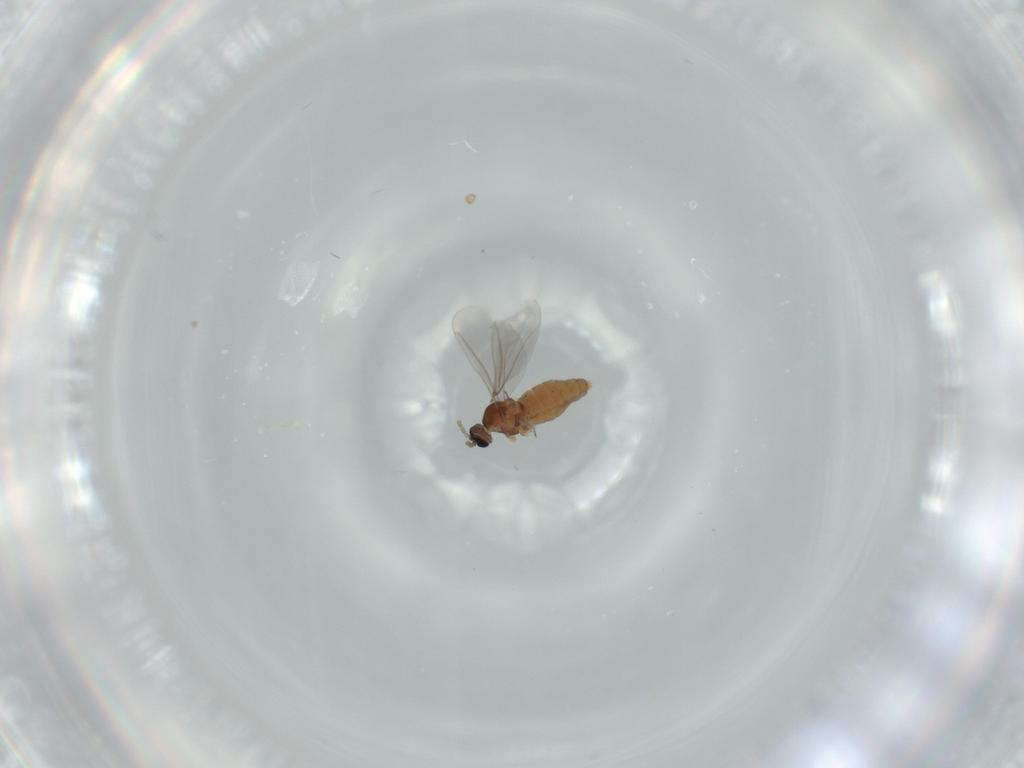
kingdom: Animalia
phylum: Arthropoda
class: Insecta
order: Diptera
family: Cecidomyiidae
